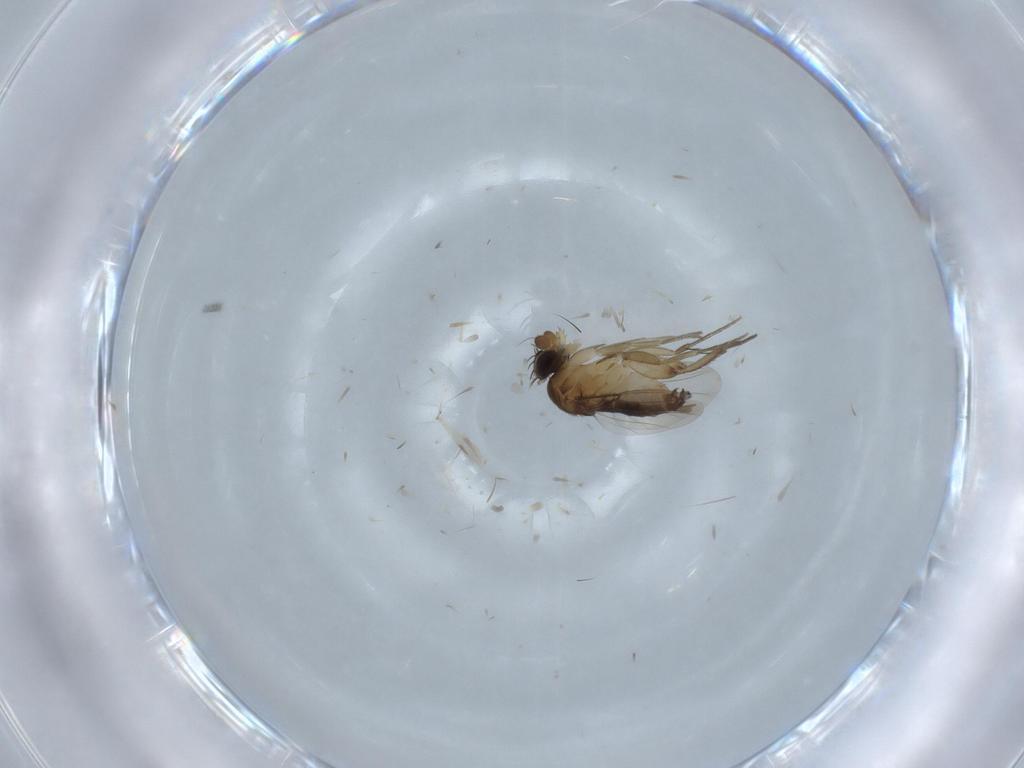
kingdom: Animalia
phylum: Arthropoda
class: Insecta
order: Diptera
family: Phoridae
